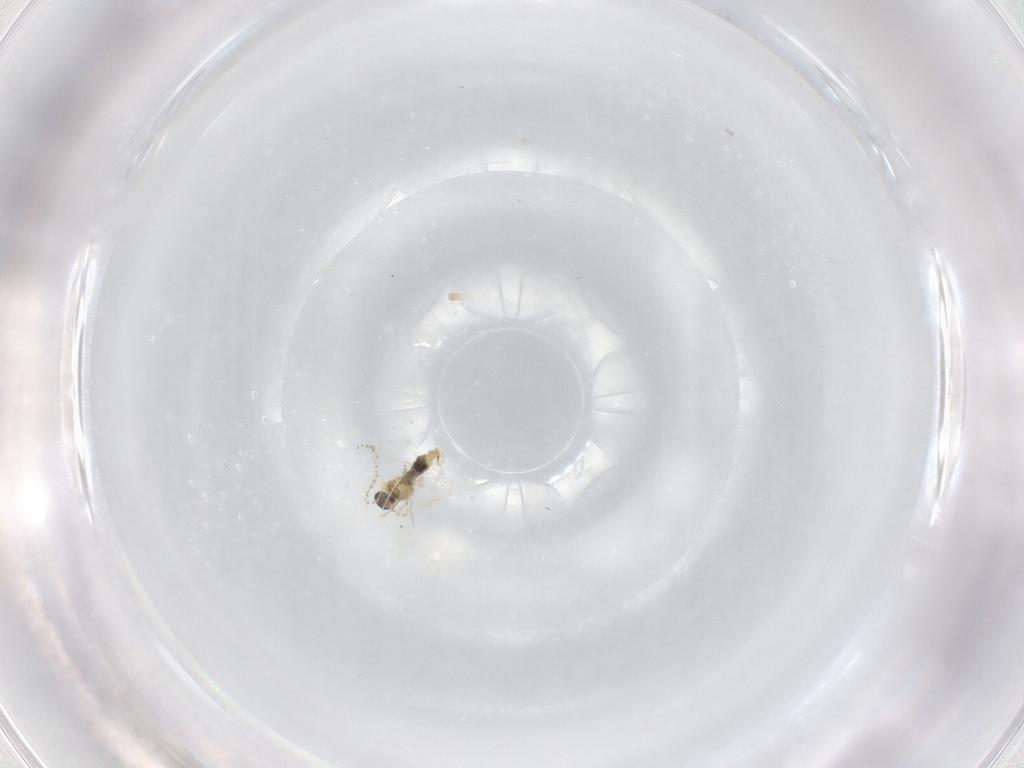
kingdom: Animalia
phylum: Arthropoda
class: Insecta
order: Diptera
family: Cecidomyiidae
